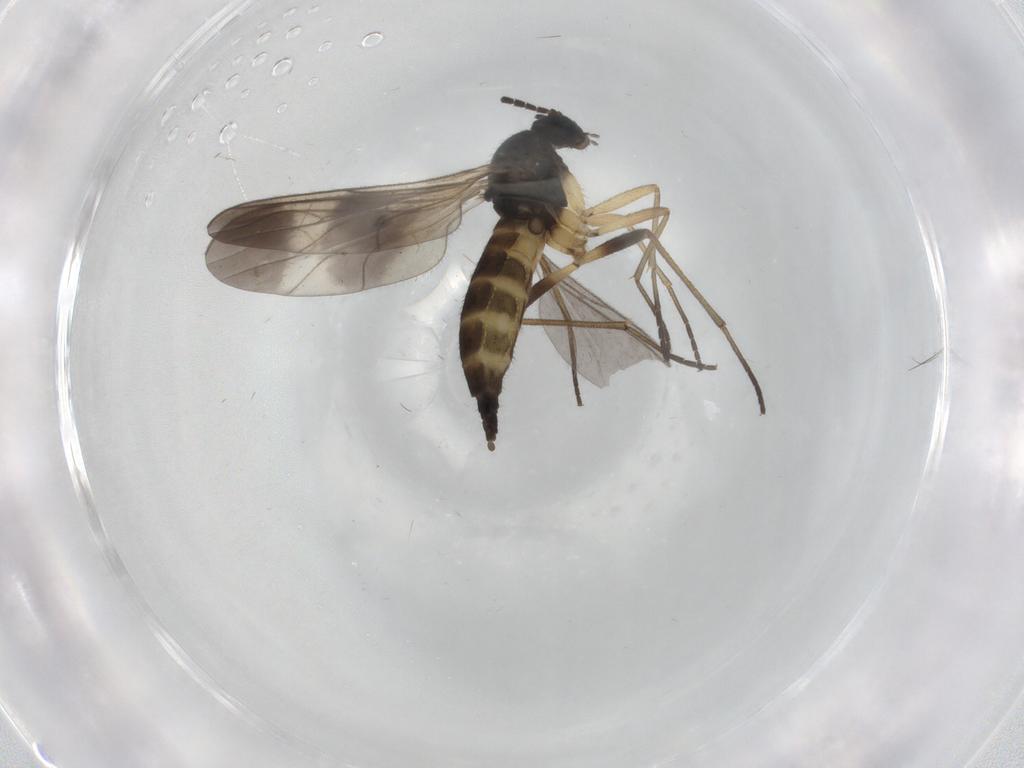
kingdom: Animalia
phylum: Arthropoda
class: Insecta
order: Diptera
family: Sciaridae
